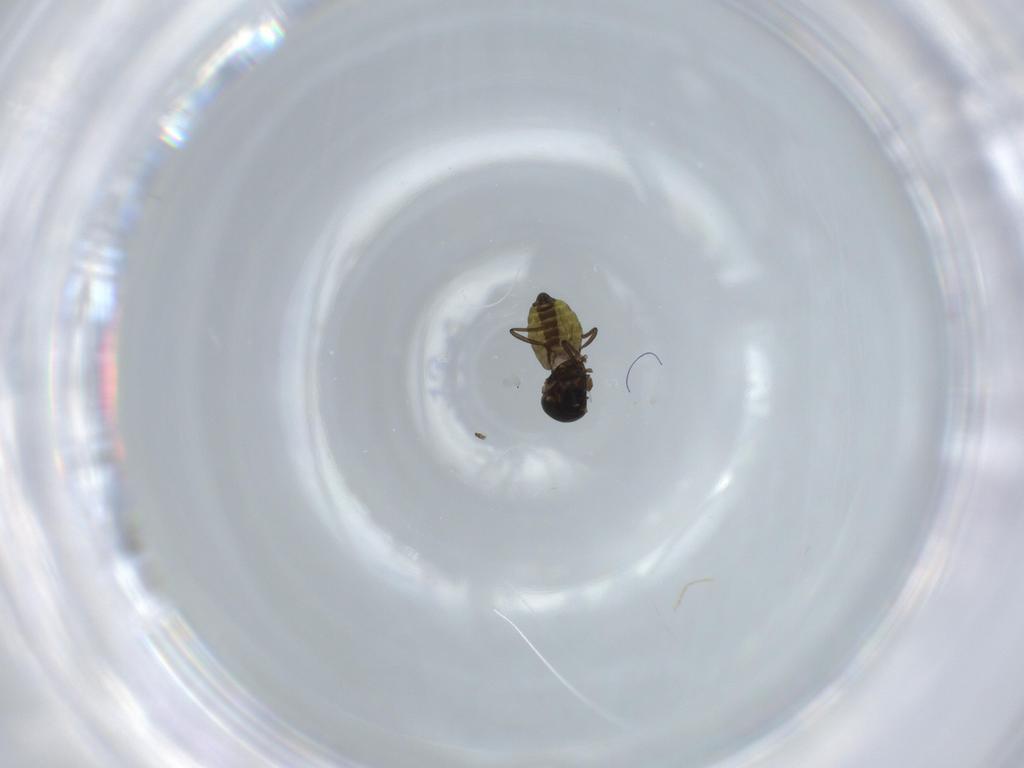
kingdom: Animalia
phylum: Arthropoda
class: Insecta
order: Diptera
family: Ceratopogonidae
